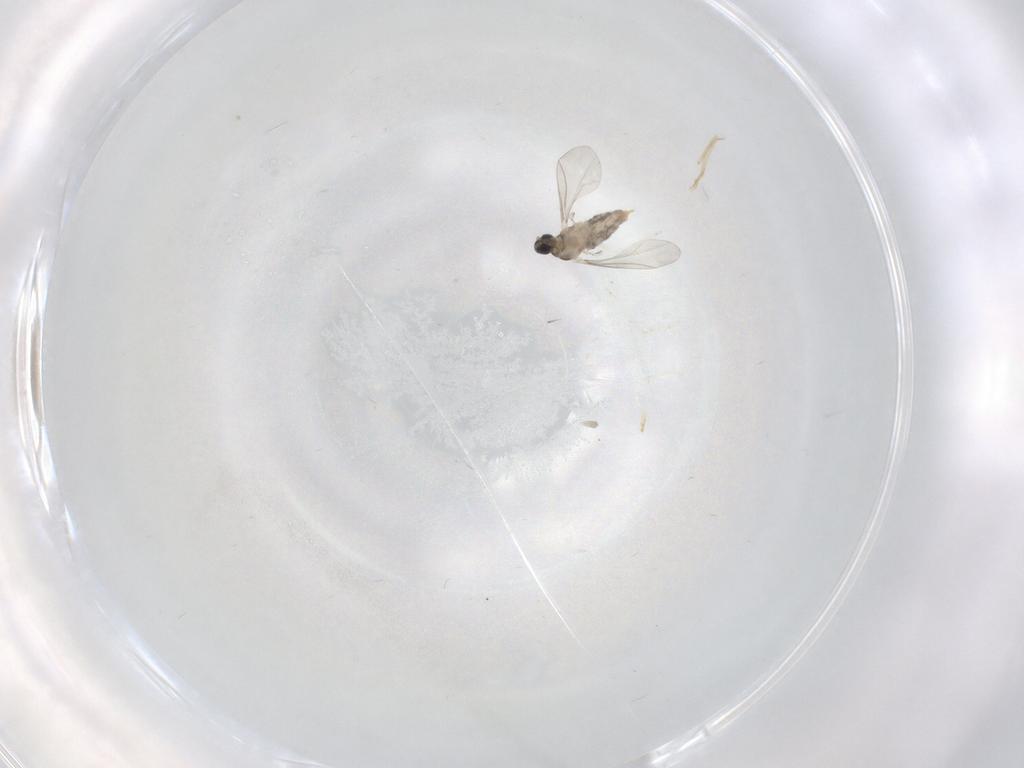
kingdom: Animalia
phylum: Arthropoda
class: Insecta
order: Diptera
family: Cecidomyiidae
